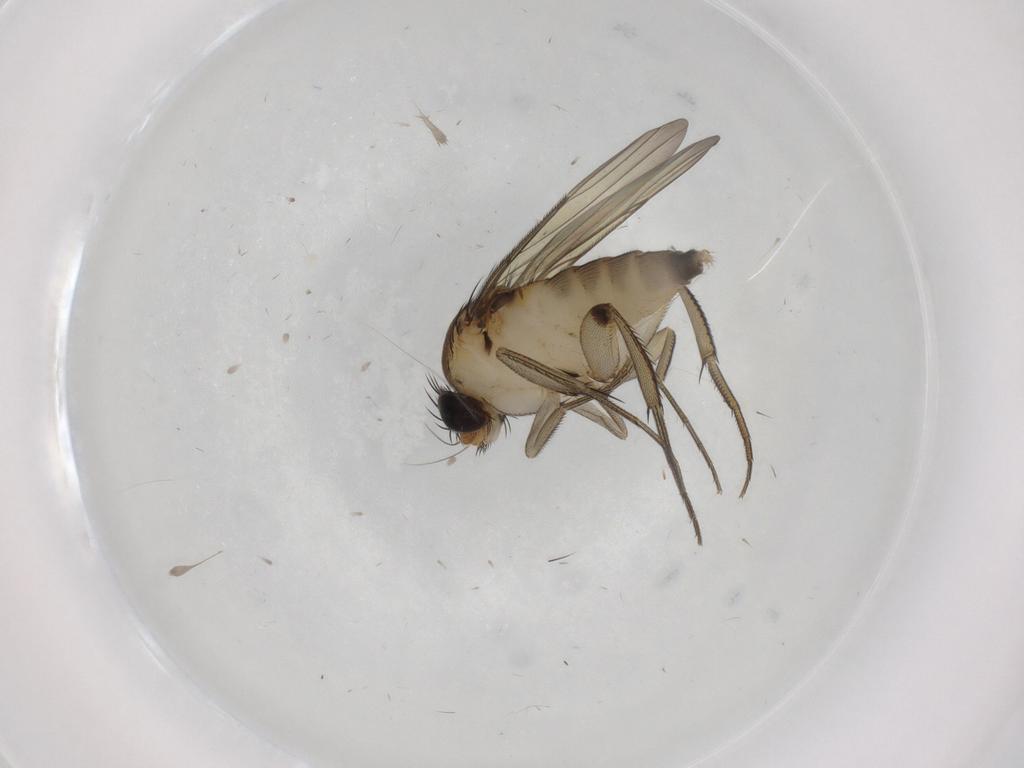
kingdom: Animalia
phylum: Arthropoda
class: Insecta
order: Diptera
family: Phoridae
